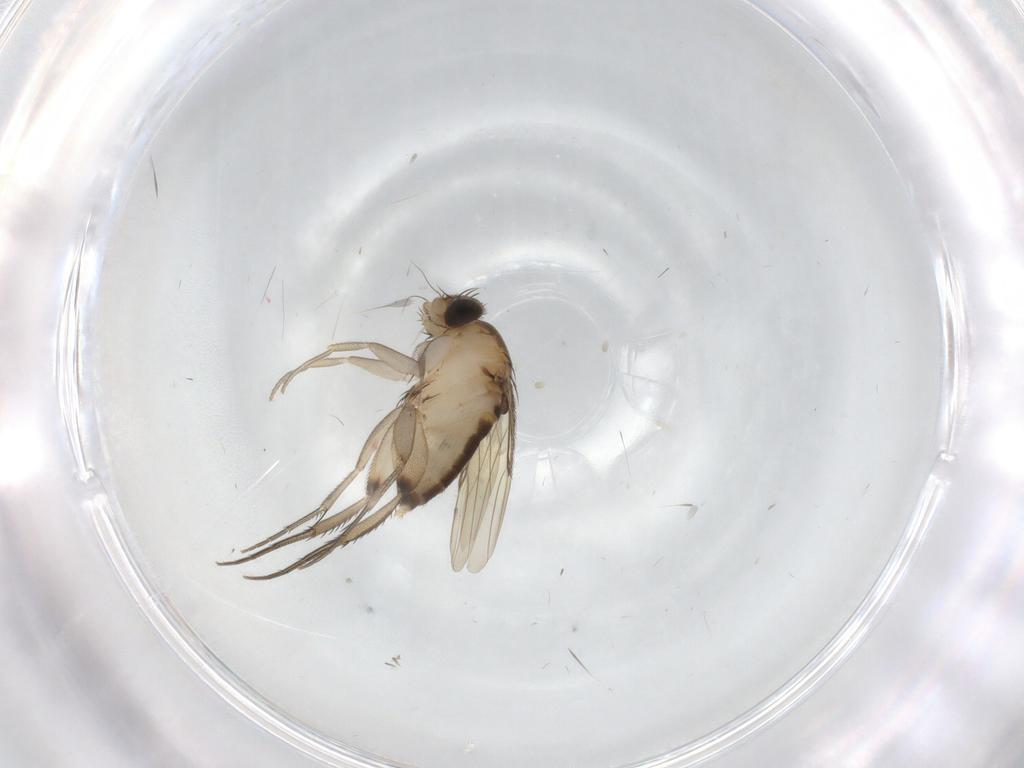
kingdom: Animalia
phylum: Arthropoda
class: Insecta
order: Diptera
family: Phoridae
